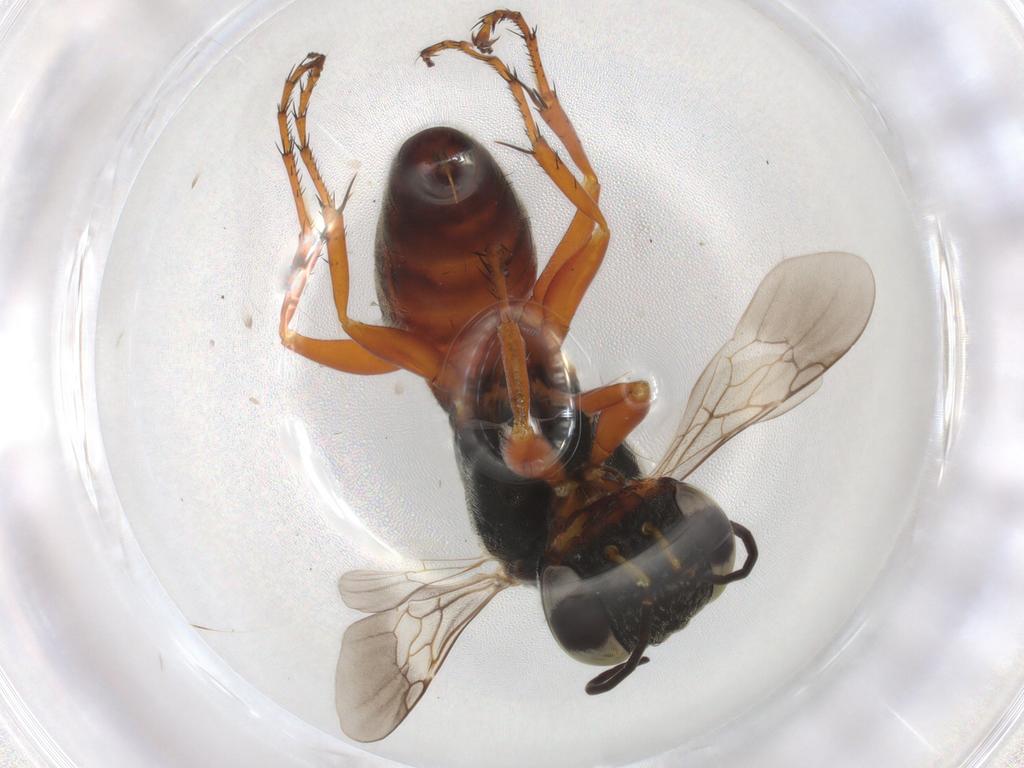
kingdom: Animalia
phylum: Arthropoda
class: Insecta
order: Hymenoptera
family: Crabronidae
